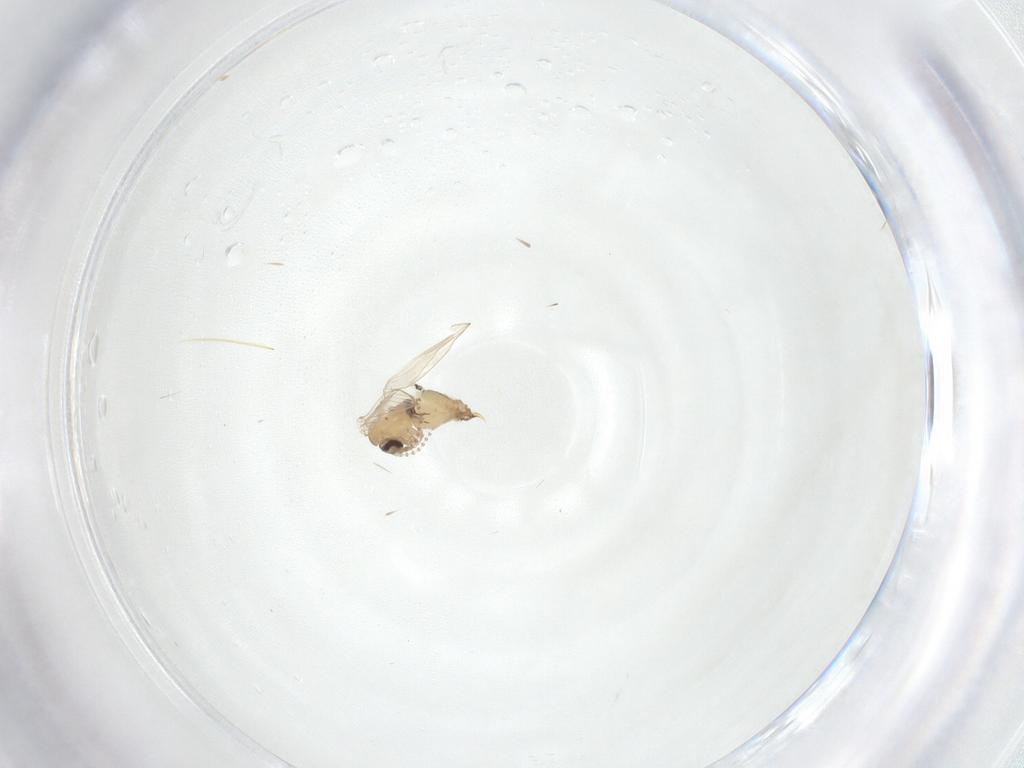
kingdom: Animalia
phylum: Arthropoda
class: Insecta
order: Diptera
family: Psychodidae
